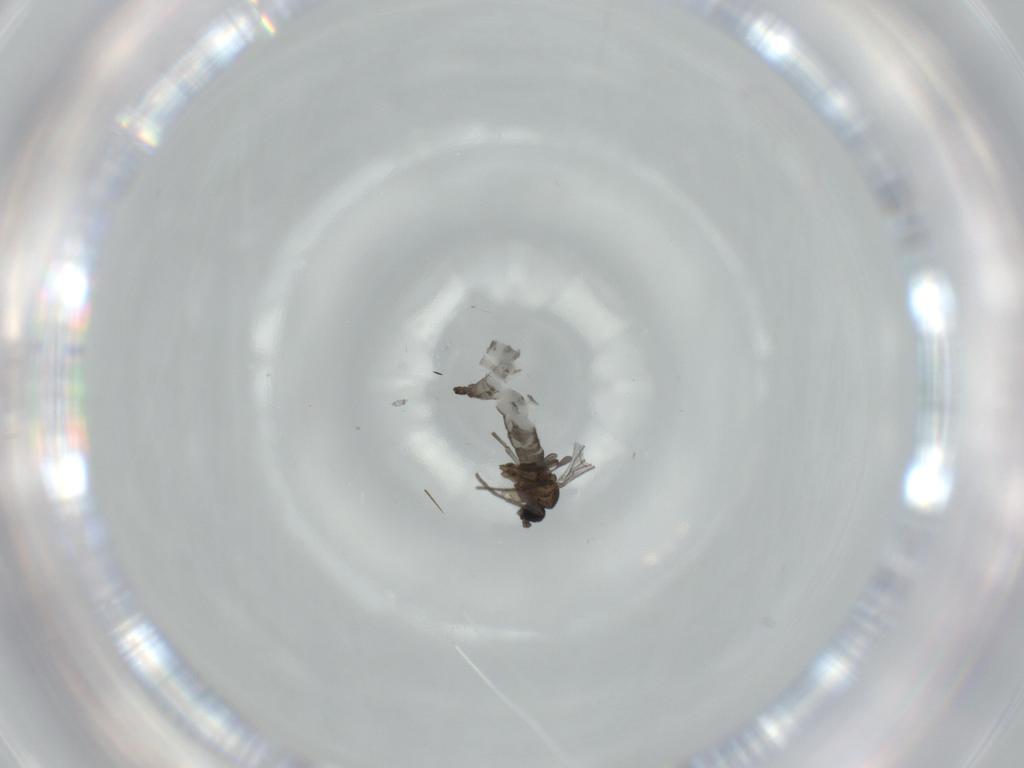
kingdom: Animalia
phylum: Arthropoda
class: Insecta
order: Diptera
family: Phoridae
